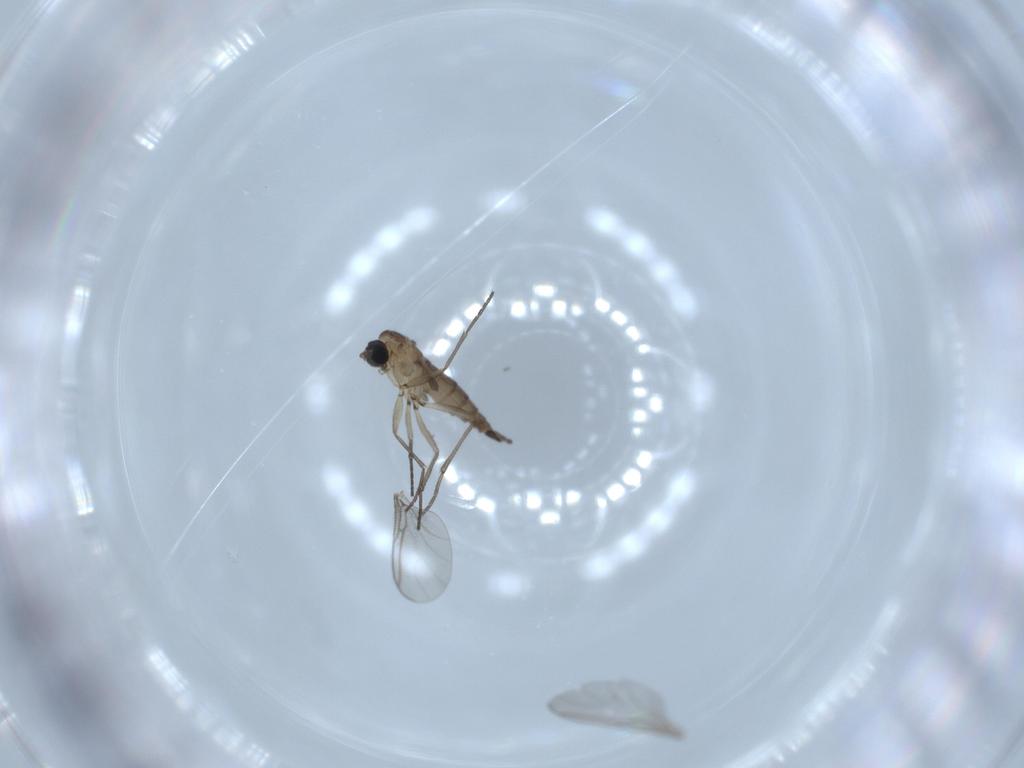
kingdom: Animalia
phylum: Arthropoda
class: Insecta
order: Diptera
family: Sciaridae
